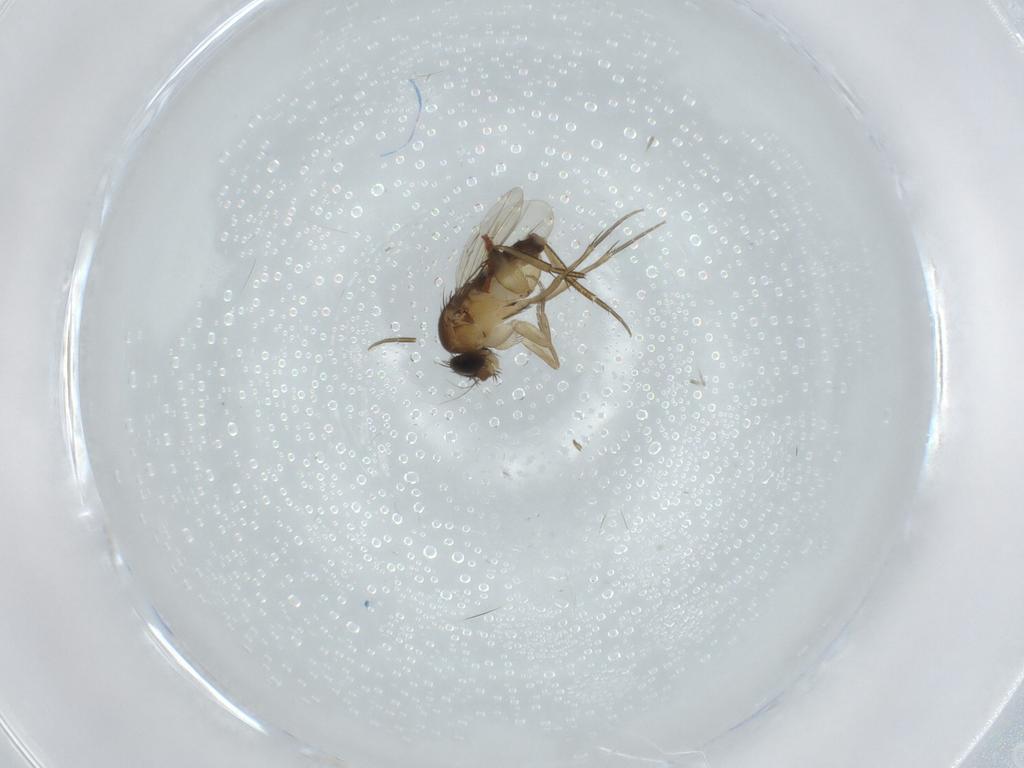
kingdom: Animalia
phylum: Arthropoda
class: Insecta
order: Diptera
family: Phoridae
